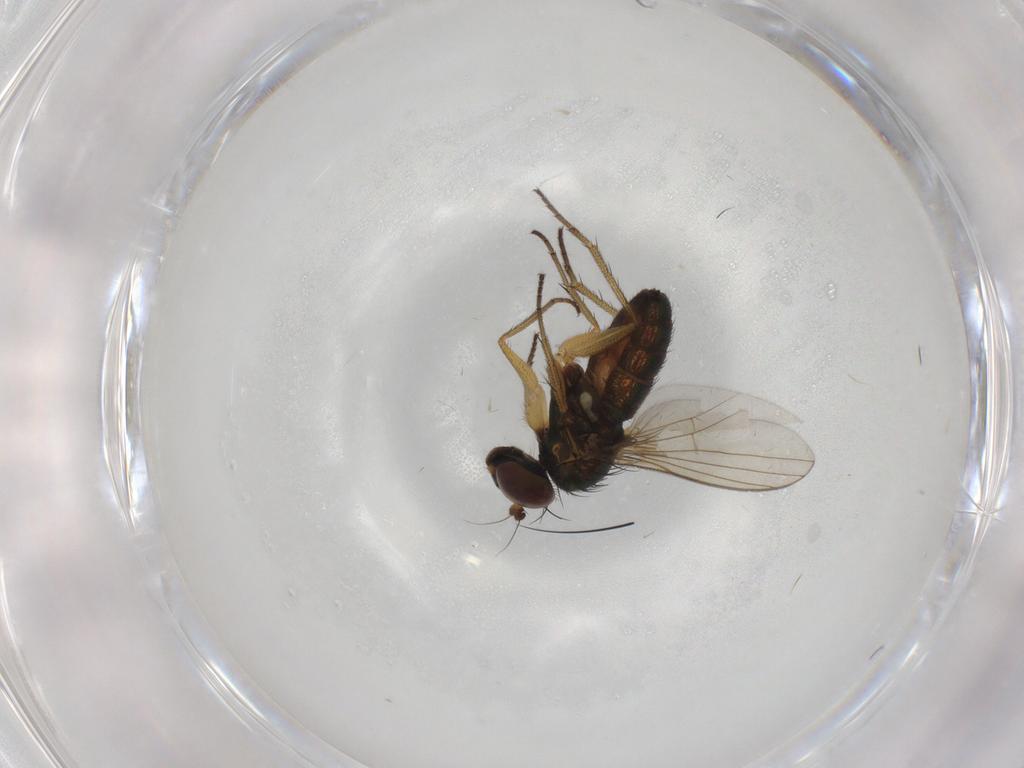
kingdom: Animalia
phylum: Arthropoda
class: Insecta
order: Diptera
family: Dolichopodidae
